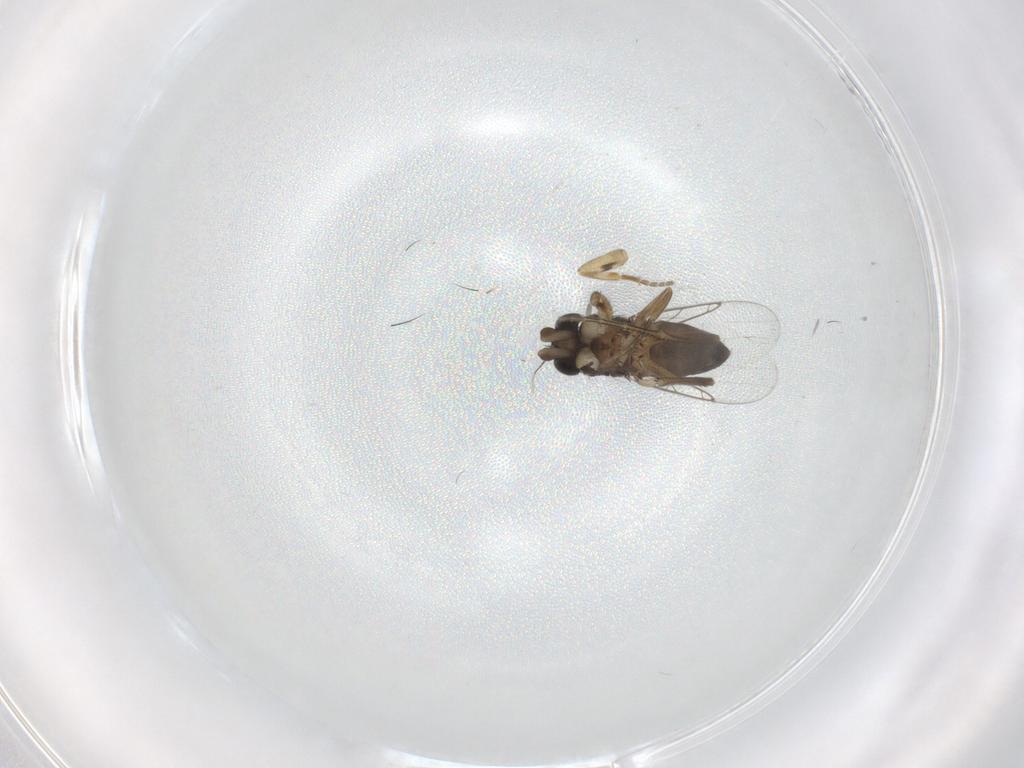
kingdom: Animalia
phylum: Arthropoda
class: Insecta
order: Diptera
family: Phoridae
